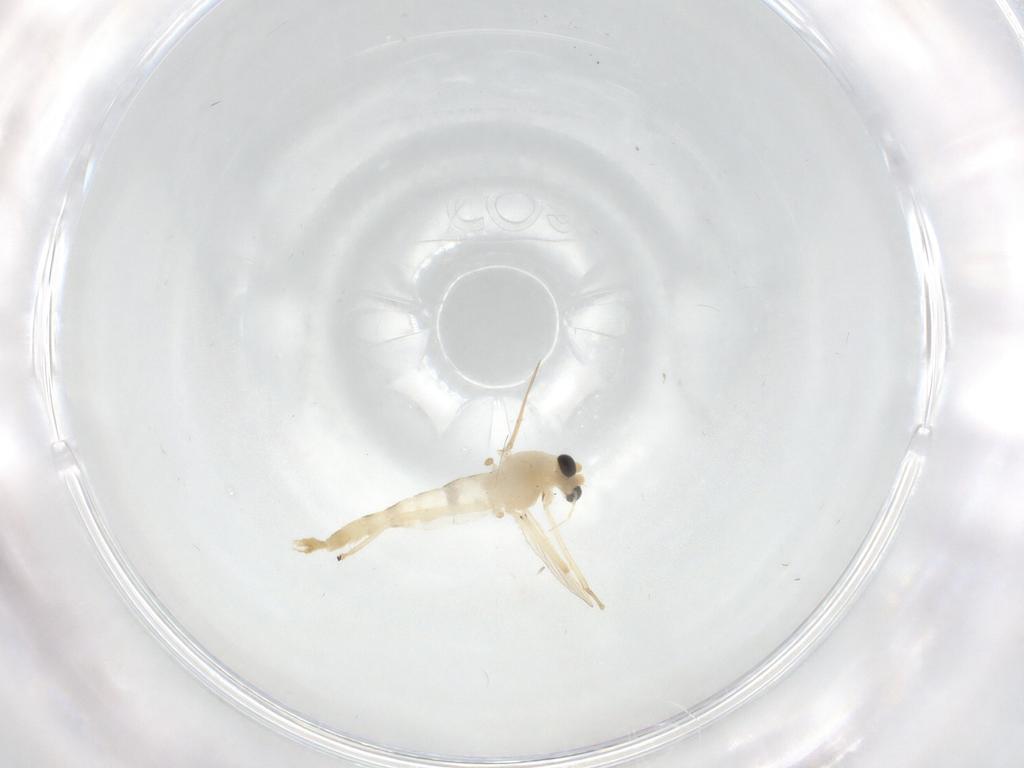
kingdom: Animalia
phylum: Arthropoda
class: Insecta
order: Diptera
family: Chironomidae
